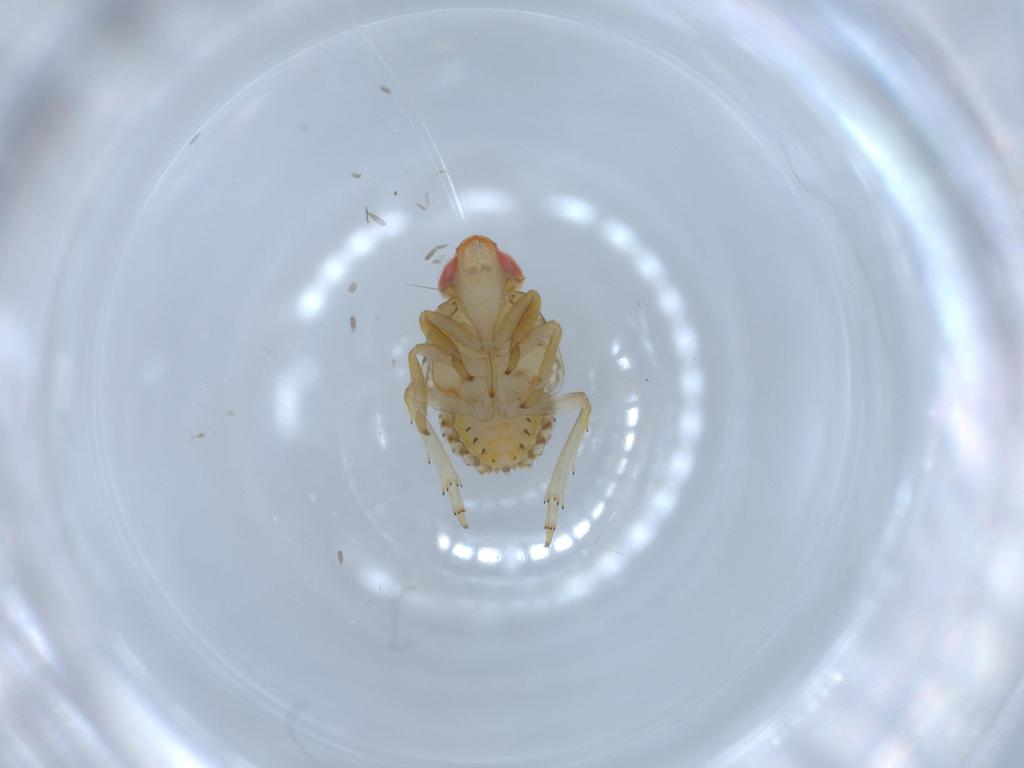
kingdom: Animalia
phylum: Arthropoda
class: Insecta
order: Hemiptera
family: Fulgoroidea_incertae_sedis
